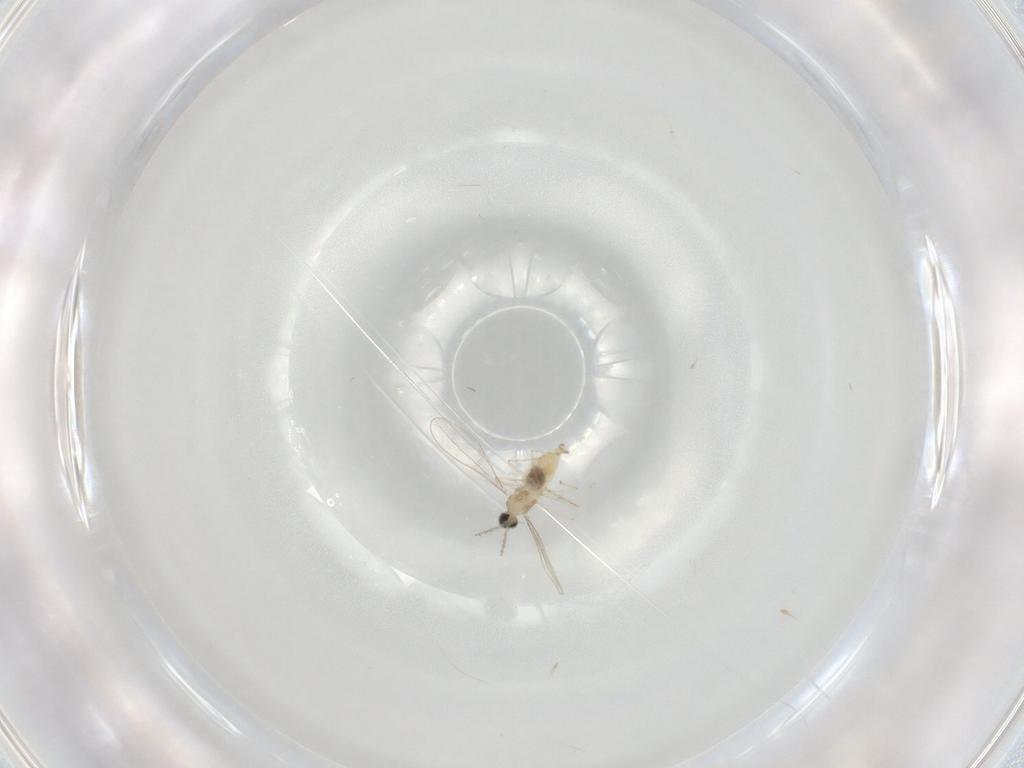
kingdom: Animalia
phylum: Arthropoda
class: Insecta
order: Diptera
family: Cecidomyiidae
